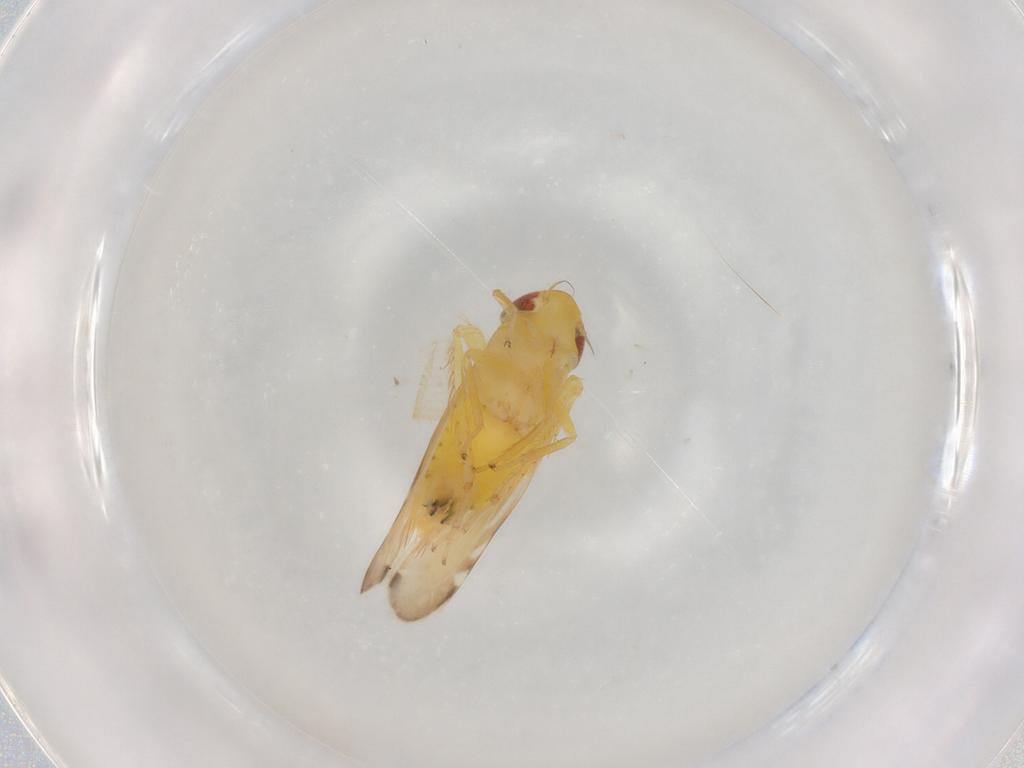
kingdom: Animalia
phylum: Arthropoda
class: Insecta
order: Hemiptera
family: Cicadellidae
